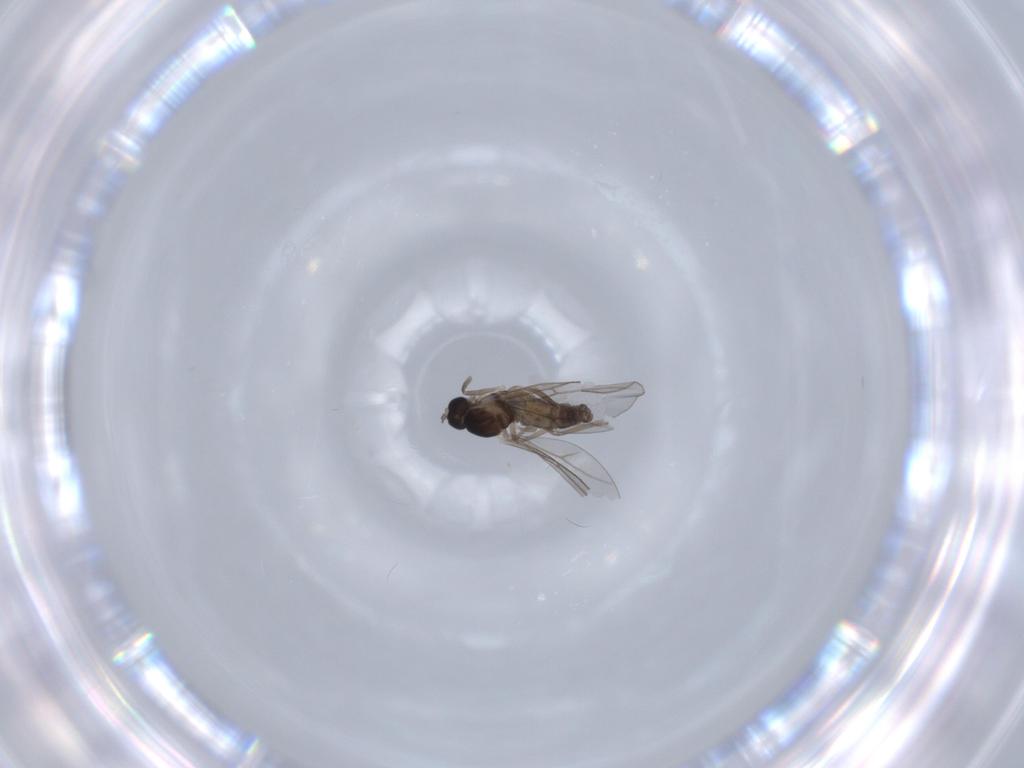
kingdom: Animalia
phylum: Arthropoda
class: Insecta
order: Diptera
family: Cecidomyiidae
